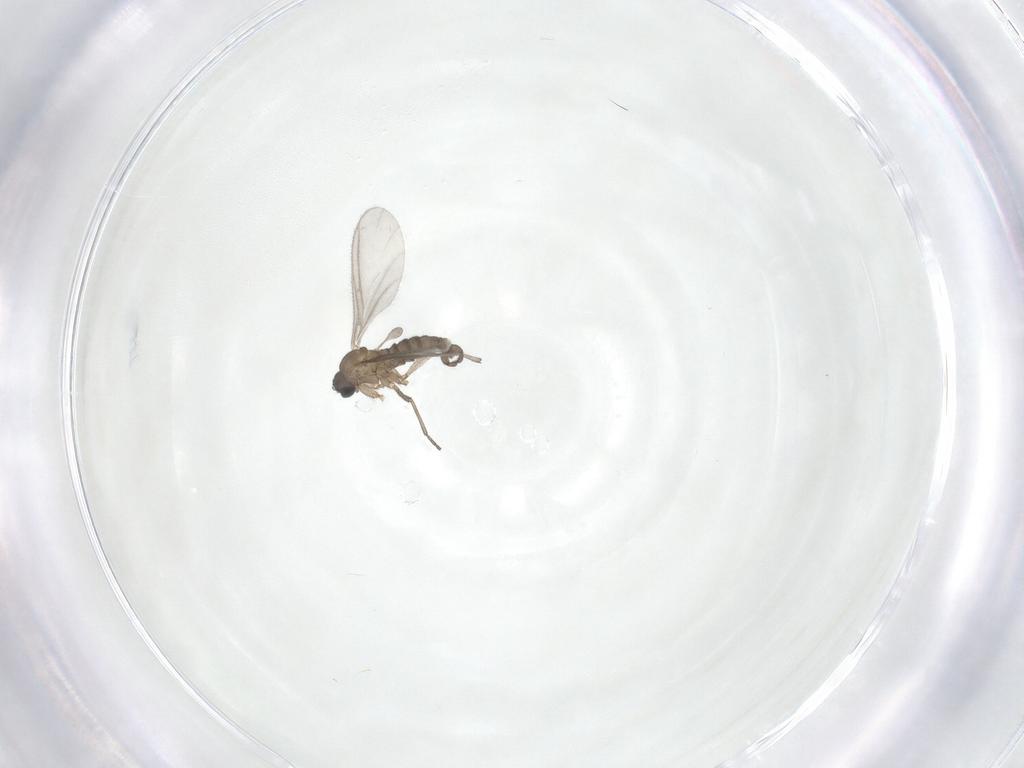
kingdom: Animalia
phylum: Arthropoda
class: Insecta
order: Diptera
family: Sciaridae
